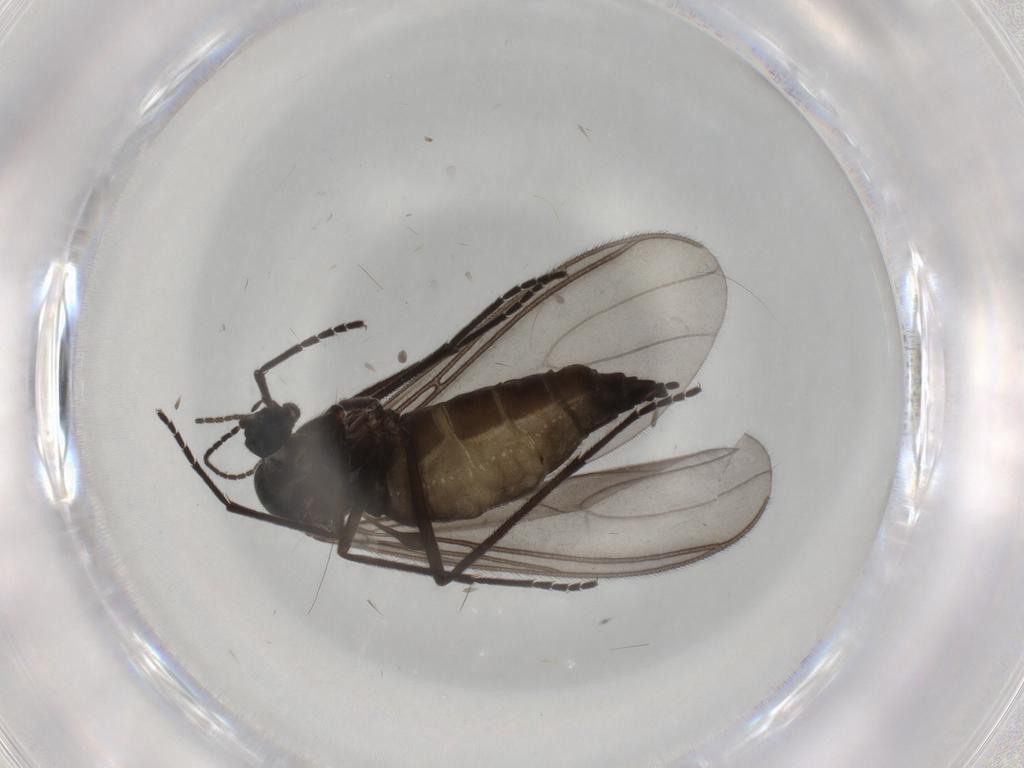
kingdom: Animalia
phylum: Arthropoda
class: Insecta
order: Diptera
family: Sciaridae
